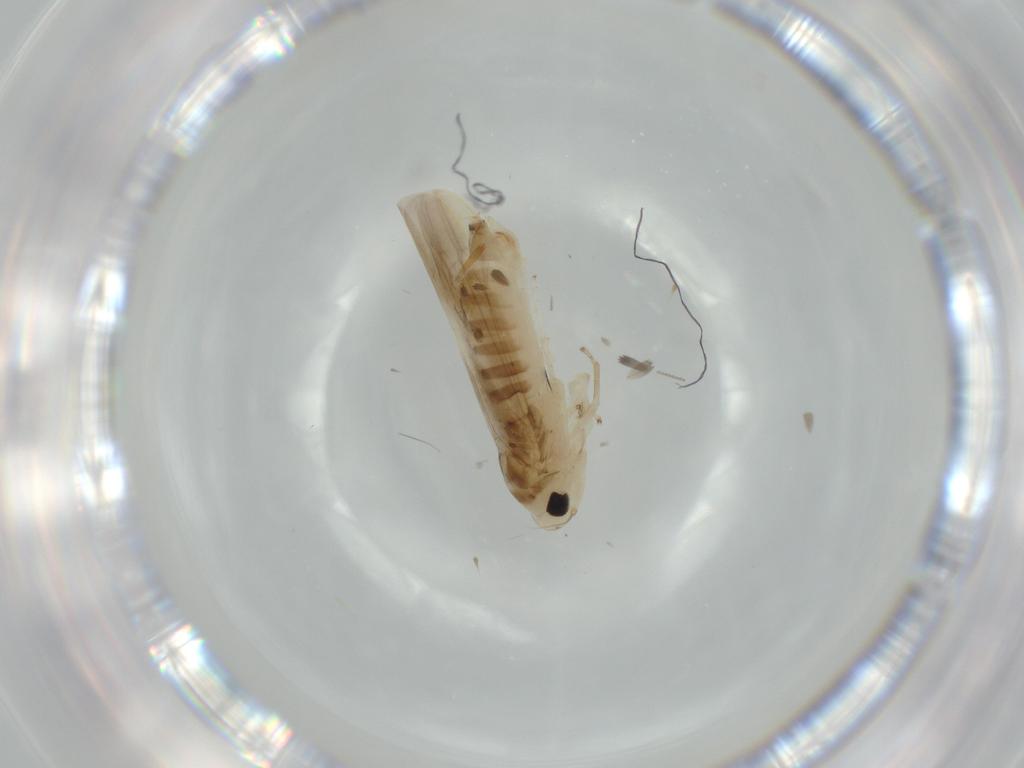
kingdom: Animalia
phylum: Arthropoda
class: Insecta
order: Hemiptera
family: Cicadellidae
